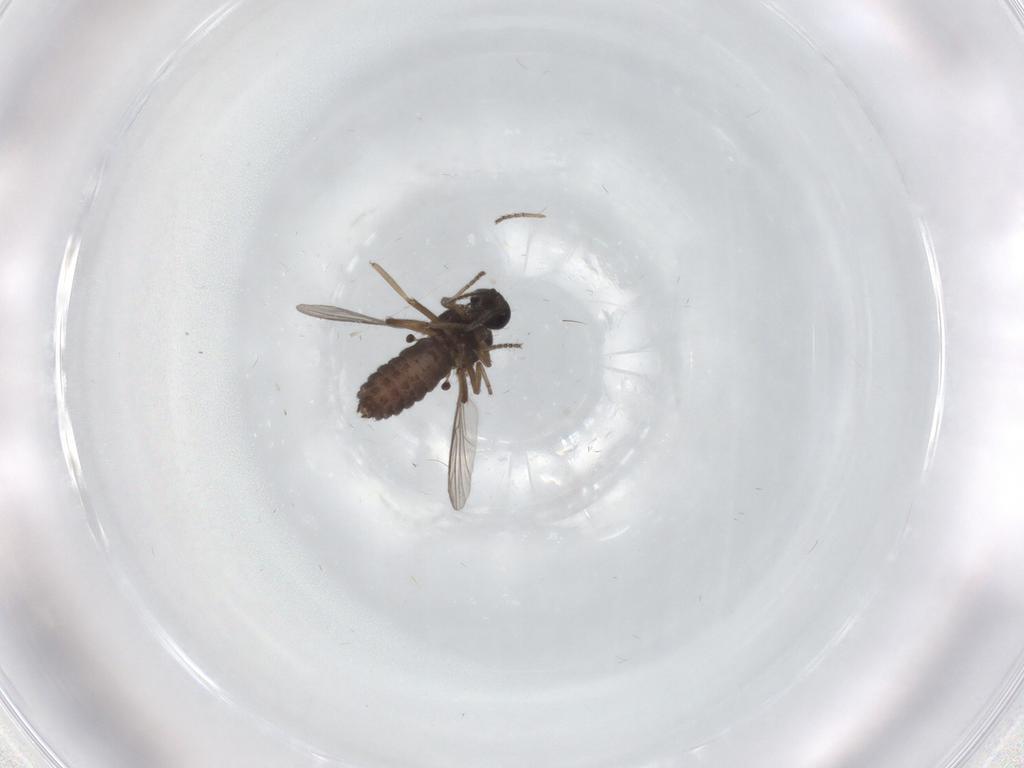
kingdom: Animalia
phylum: Arthropoda
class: Insecta
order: Diptera
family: Ceratopogonidae
